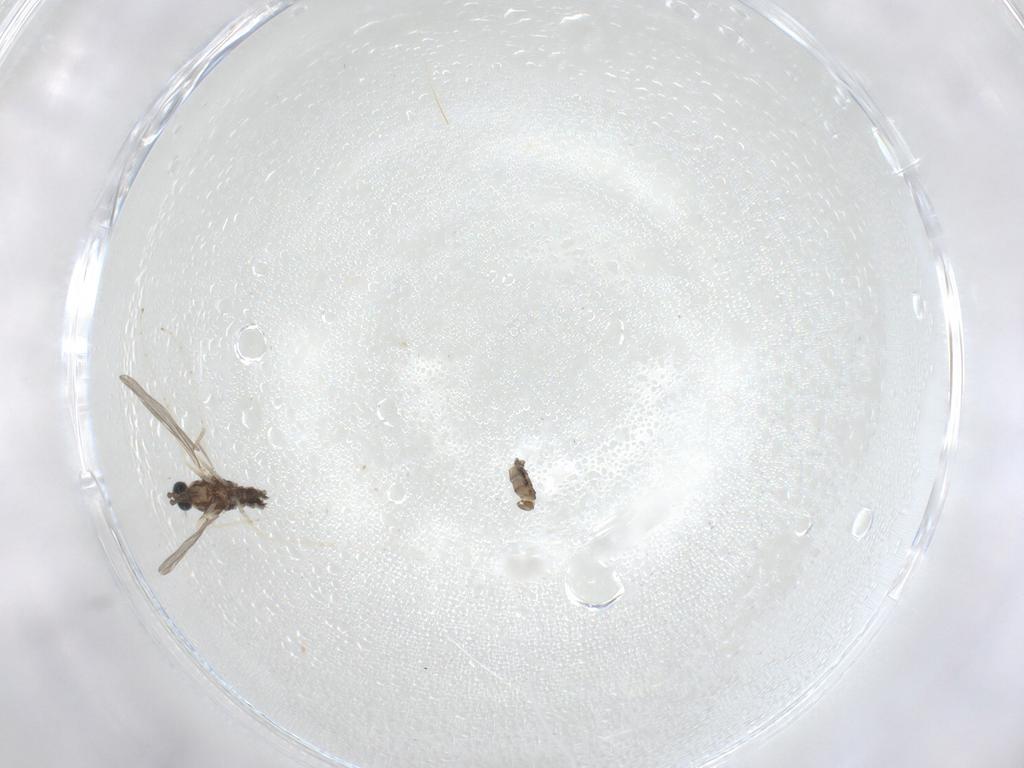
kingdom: Animalia
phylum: Arthropoda
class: Insecta
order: Diptera
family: Cecidomyiidae
